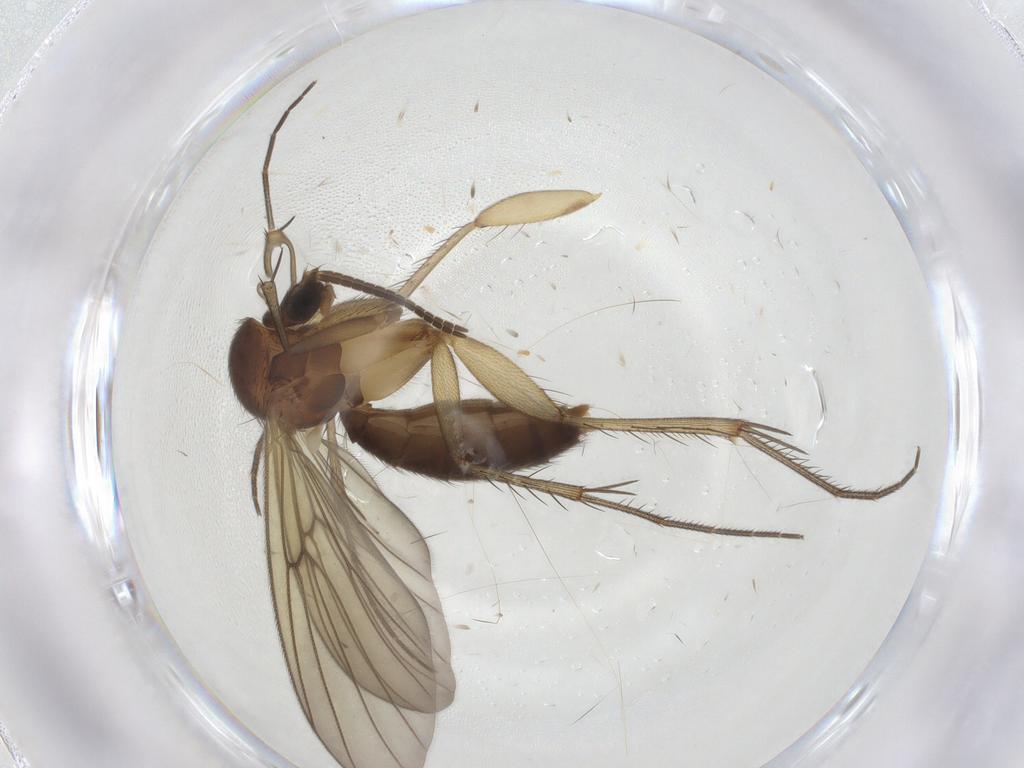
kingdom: Animalia
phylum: Arthropoda
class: Insecta
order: Diptera
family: Mycetophilidae
